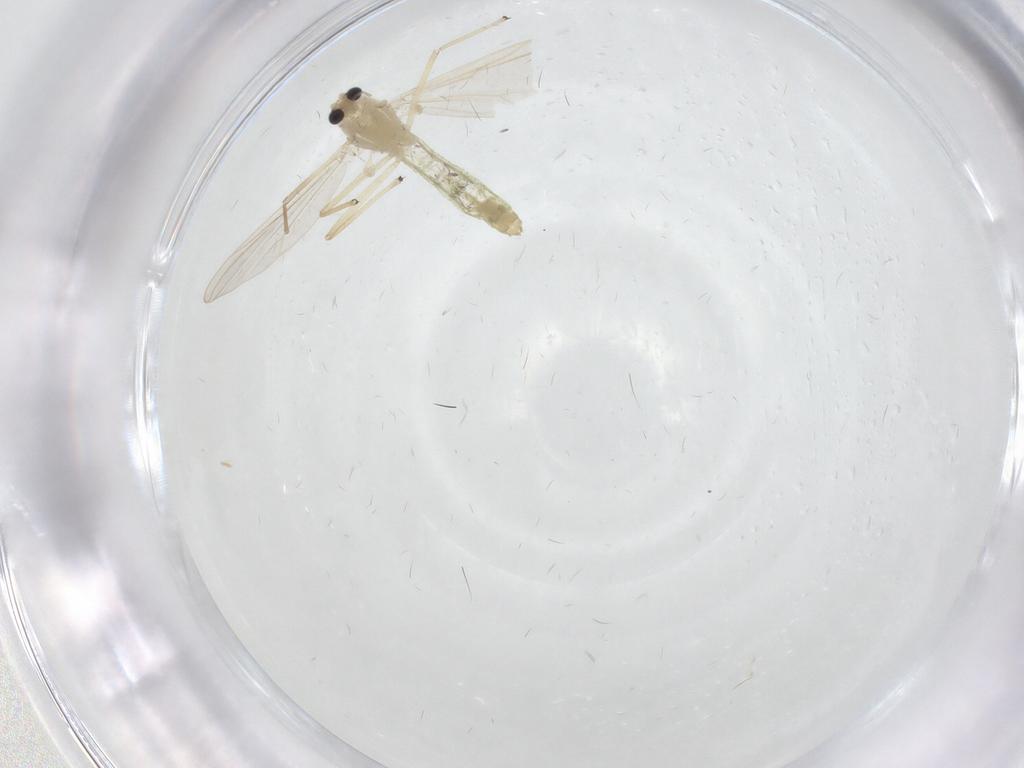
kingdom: Animalia
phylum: Arthropoda
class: Insecta
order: Diptera
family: Chironomidae
